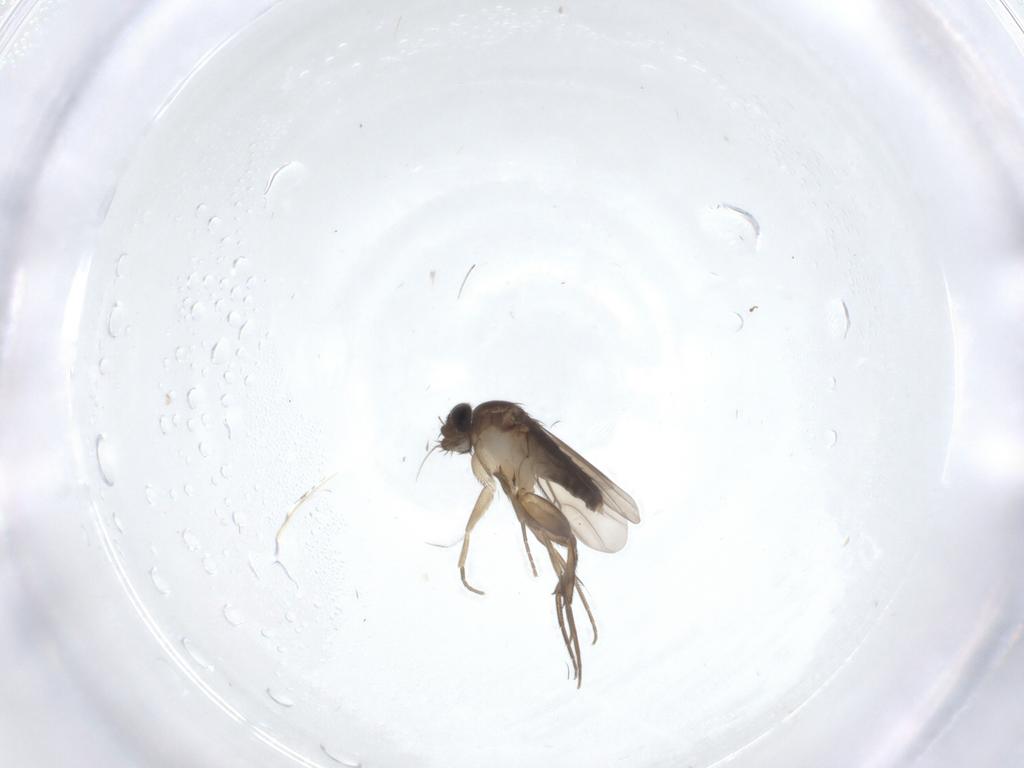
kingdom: Animalia
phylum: Arthropoda
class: Insecta
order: Diptera
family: Phoridae
